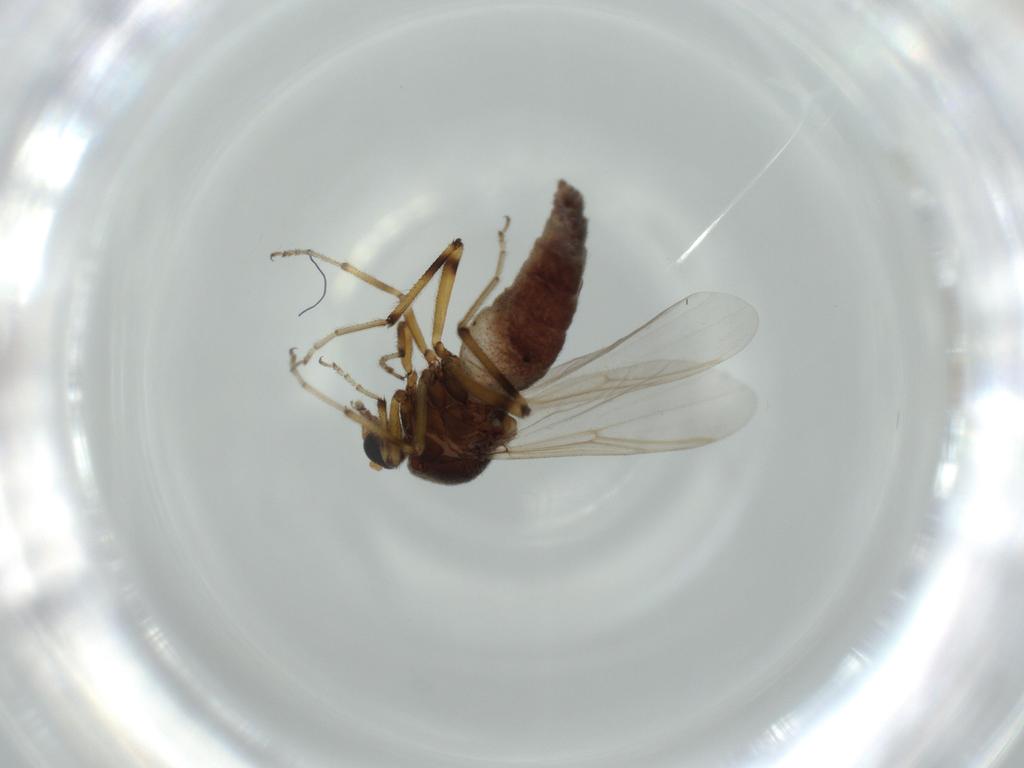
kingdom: Animalia
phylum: Arthropoda
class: Insecta
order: Diptera
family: Ceratopogonidae
